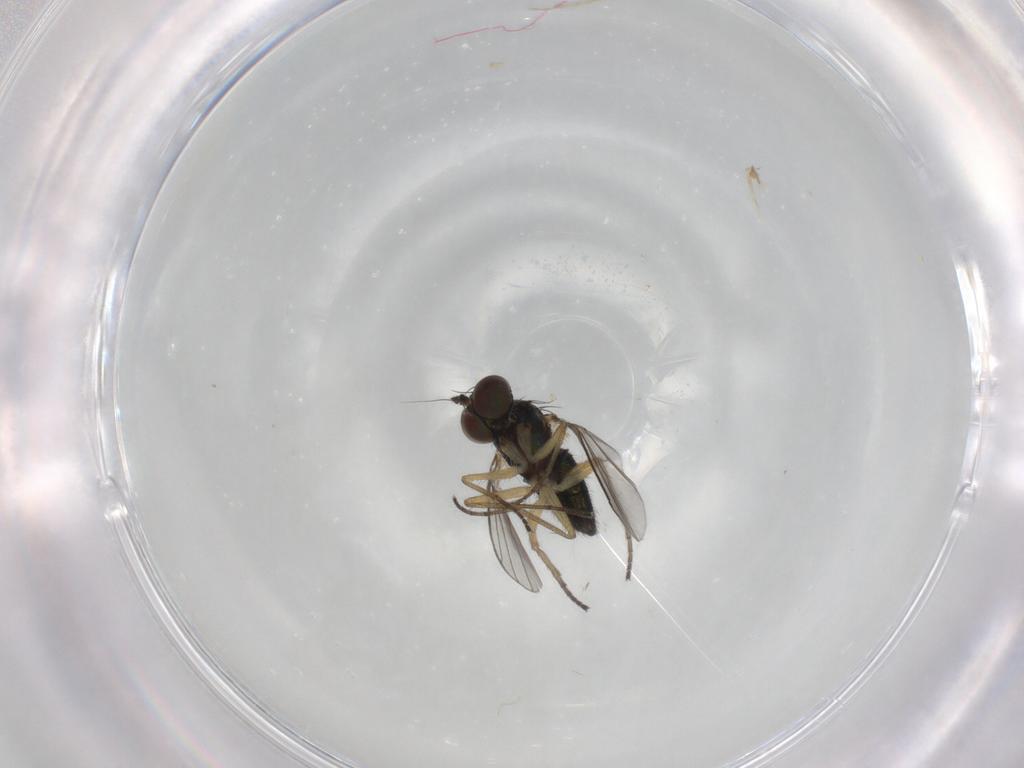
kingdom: Animalia
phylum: Arthropoda
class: Insecta
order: Diptera
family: Dolichopodidae
